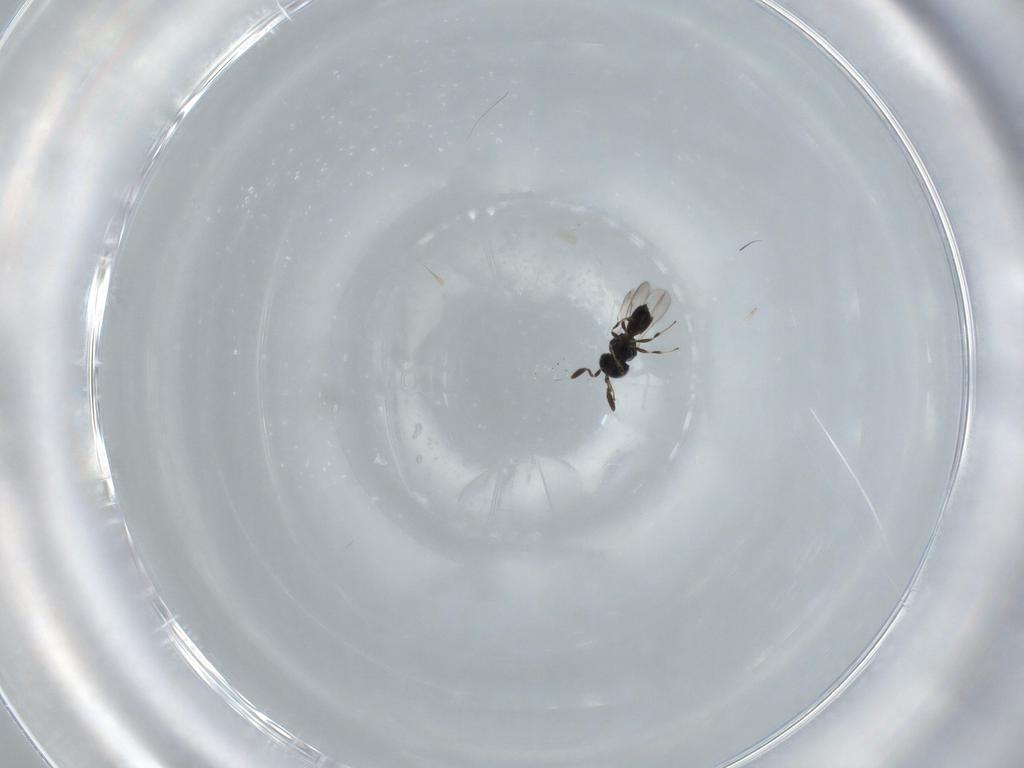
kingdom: Animalia
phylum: Arthropoda
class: Insecta
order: Hymenoptera
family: Scelionidae
